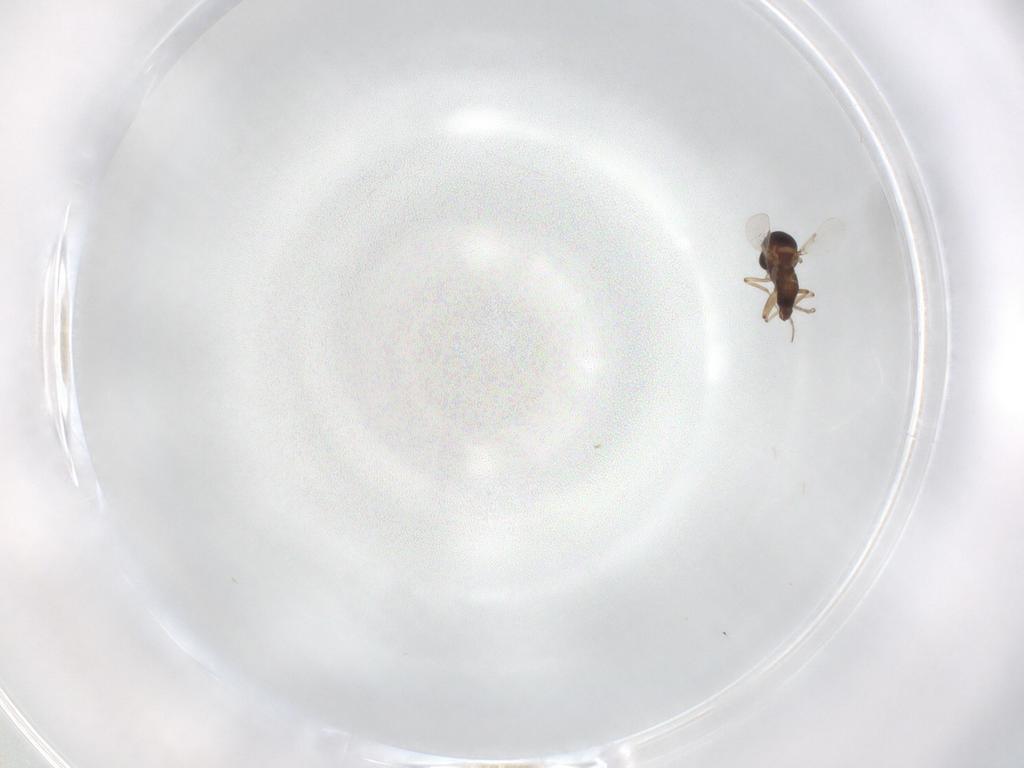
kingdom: Animalia
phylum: Arthropoda
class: Insecta
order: Diptera
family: Ceratopogonidae
